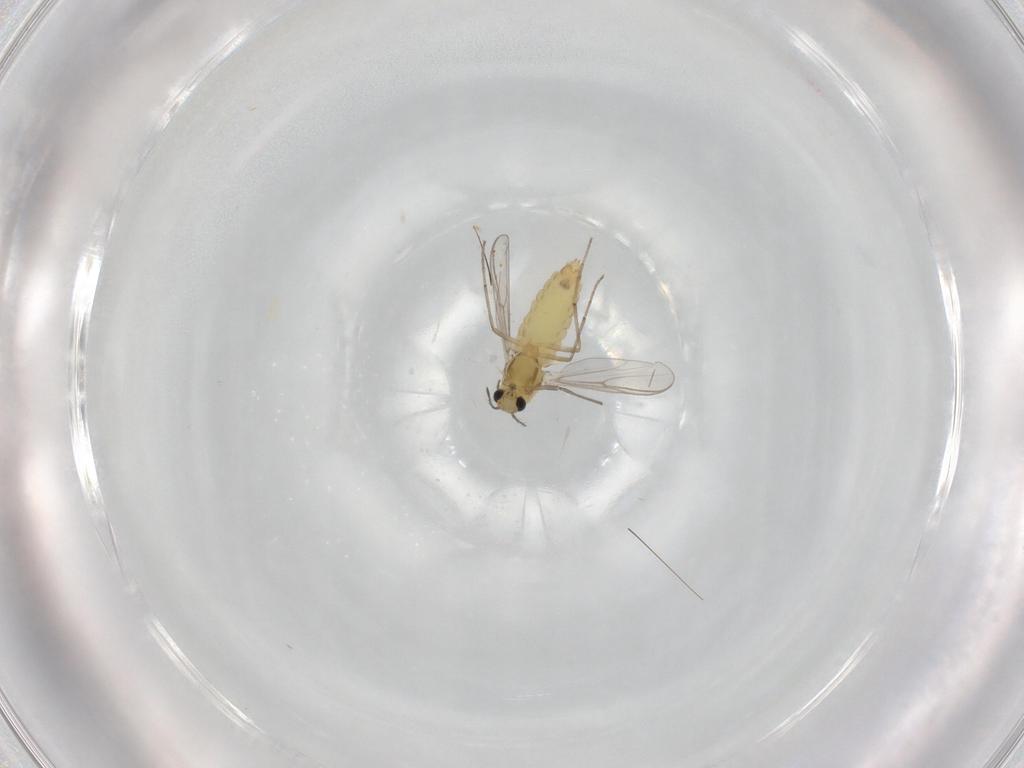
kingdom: Animalia
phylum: Arthropoda
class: Insecta
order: Diptera
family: Chironomidae
